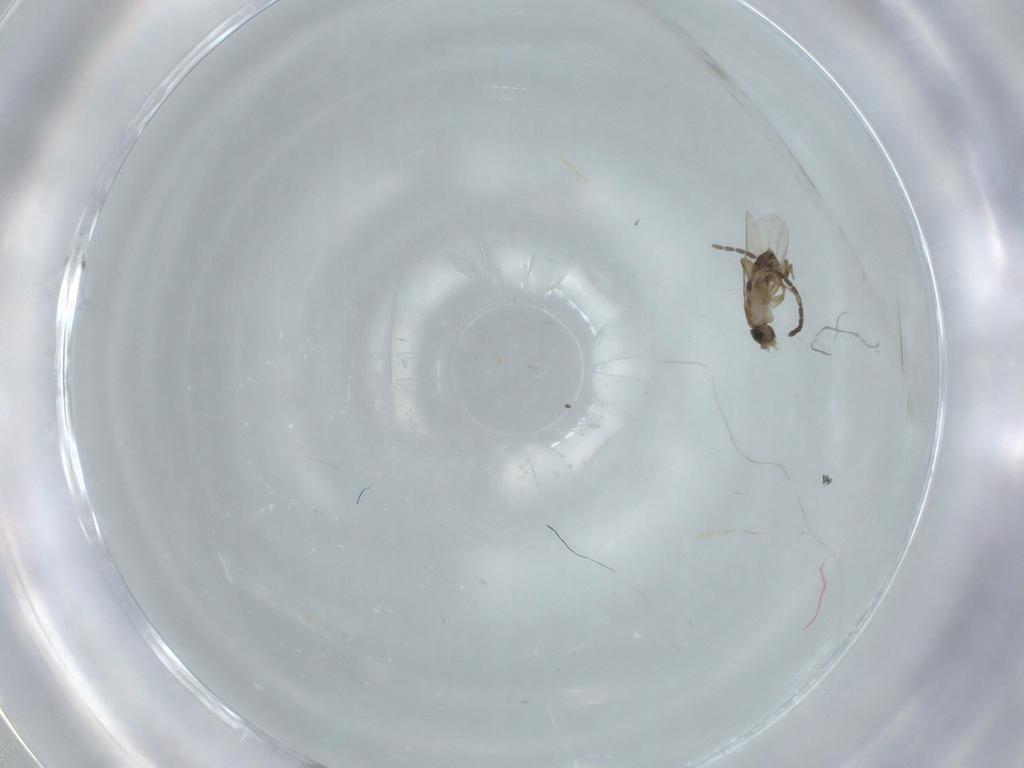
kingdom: Animalia
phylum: Arthropoda
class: Insecta
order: Diptera
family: Phoridae
